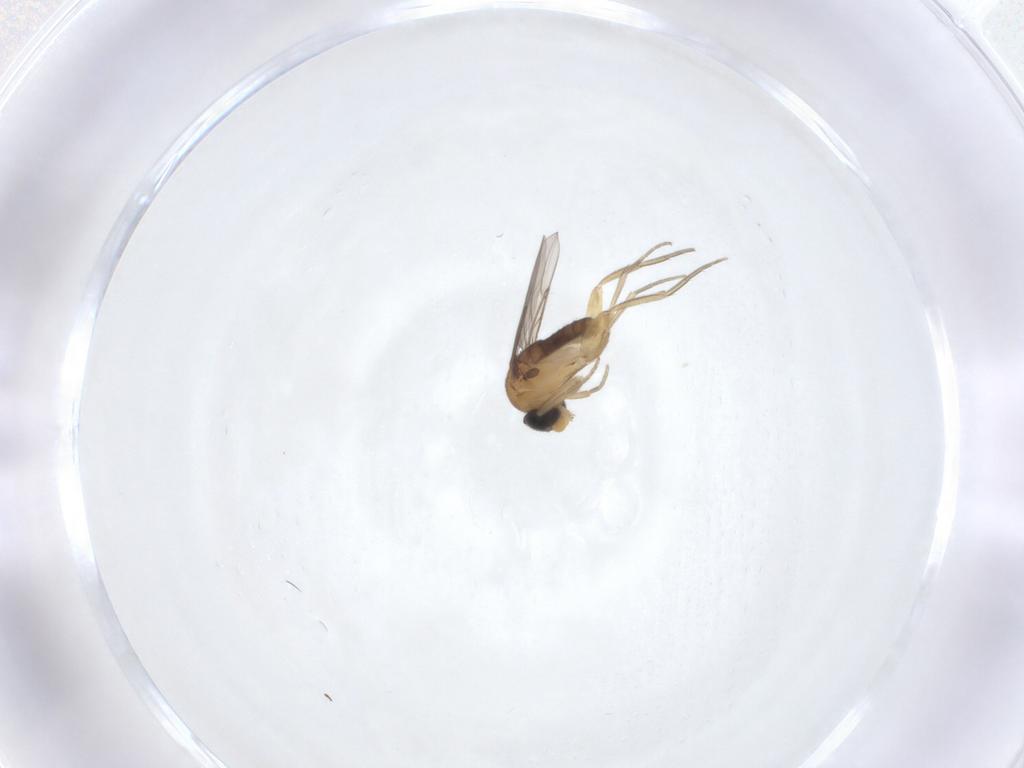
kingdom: Animalia
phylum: Arthropoda
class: Insecta
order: Diptera
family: Phoridae
